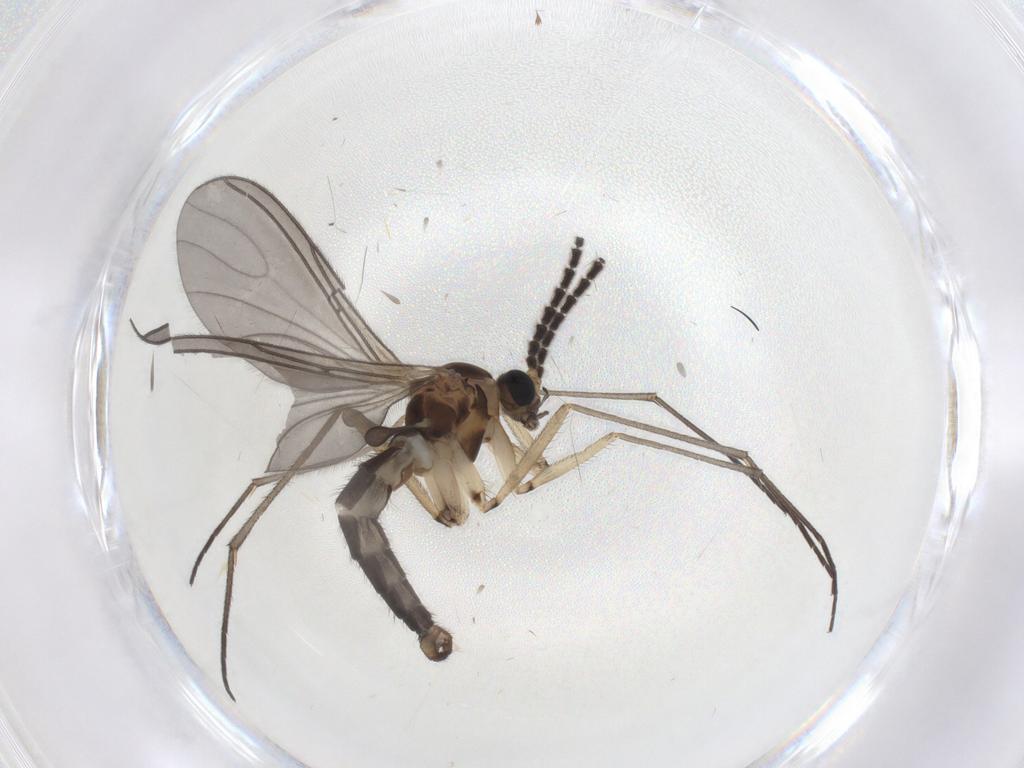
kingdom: Animalia
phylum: Arthropoda
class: Insecta
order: Diptera
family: Sciaridae
